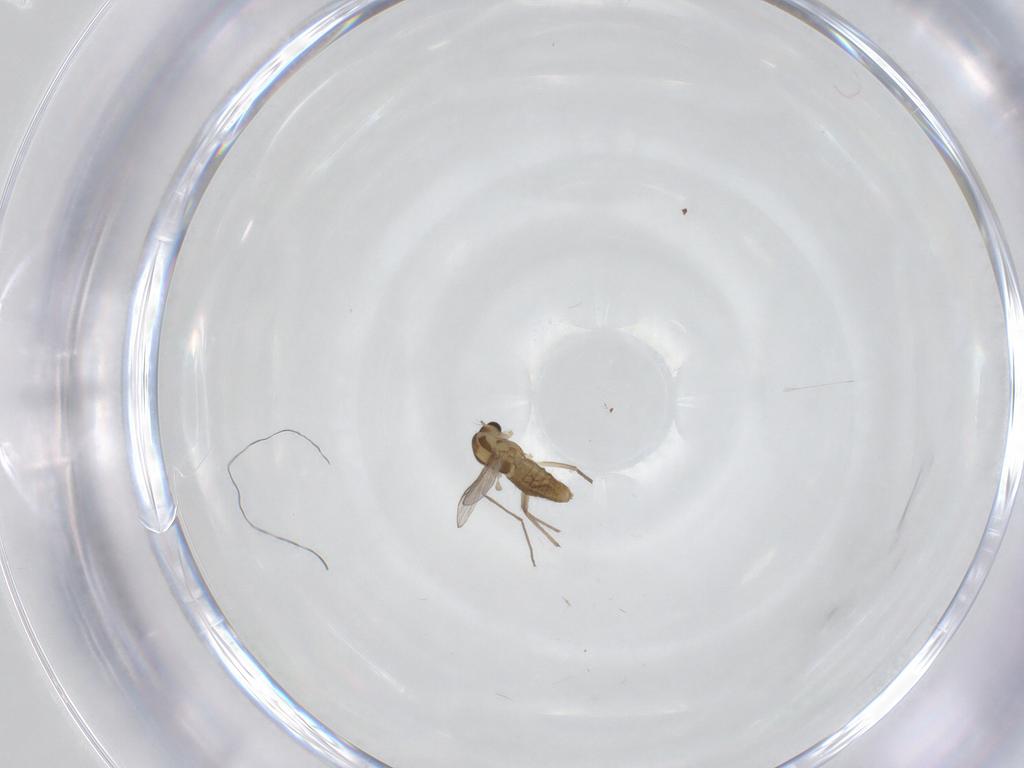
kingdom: Animalia
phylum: Arthropoda
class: Insecta
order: Diptera
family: Chironomidae
